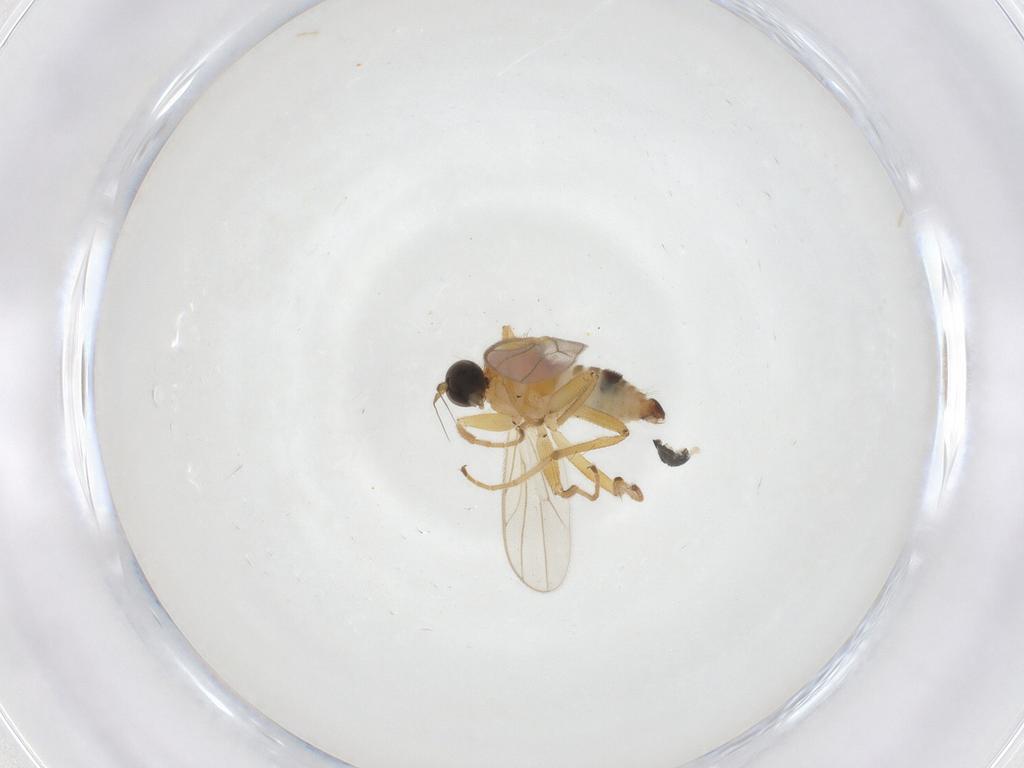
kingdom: Animalia
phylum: Arthropoda
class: Insecta
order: Diptera
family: Hybotidae
